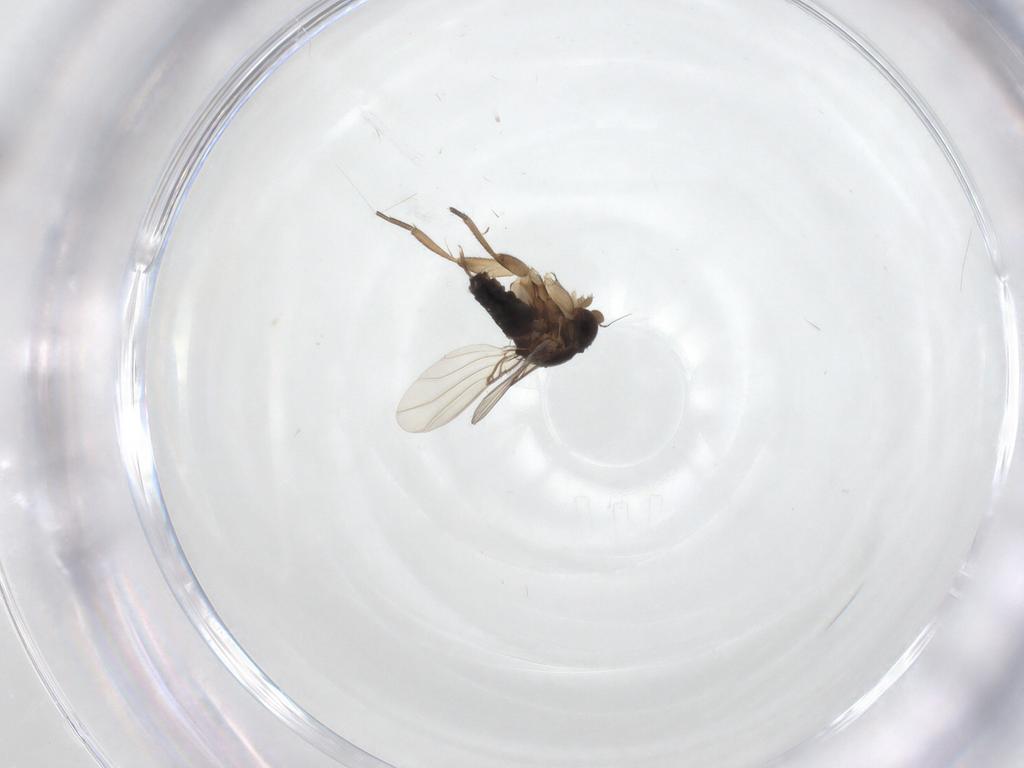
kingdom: Animalia
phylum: Arthropoda
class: Insecta
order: Diptera
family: Phoridae
